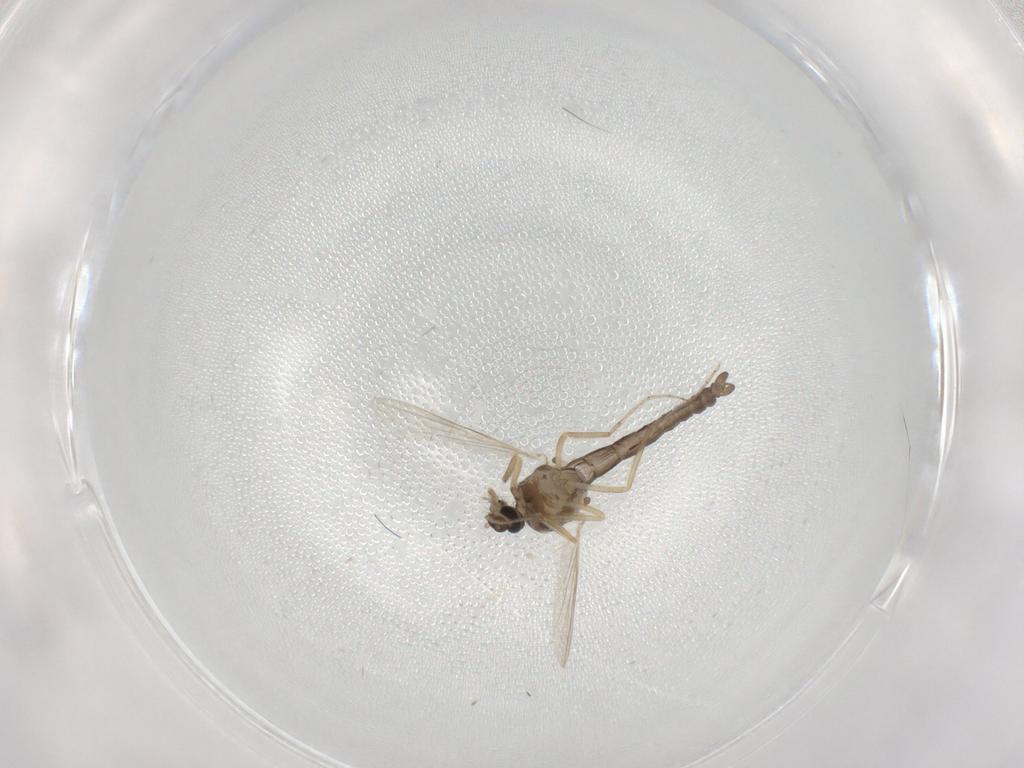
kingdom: Animalia
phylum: Arthropoda
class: Insecta
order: Diptera
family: Ceratopogonidae
